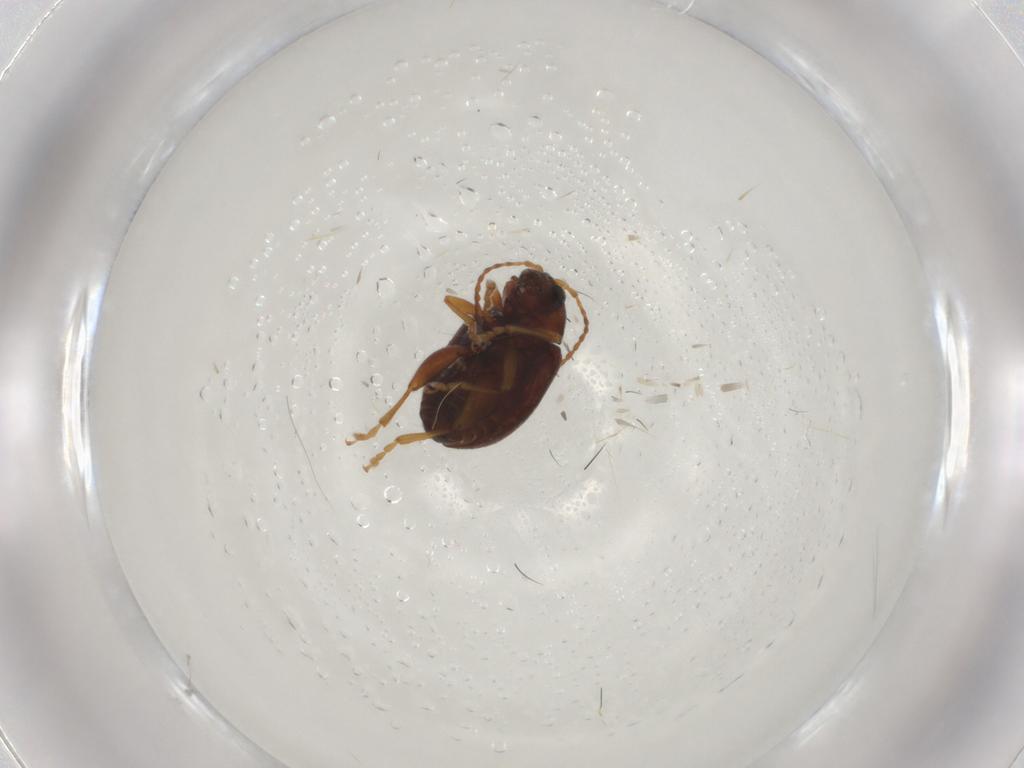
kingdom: Animalia
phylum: Arthropoda
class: Insecta
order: Coleoptera
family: Chrysomelidae
